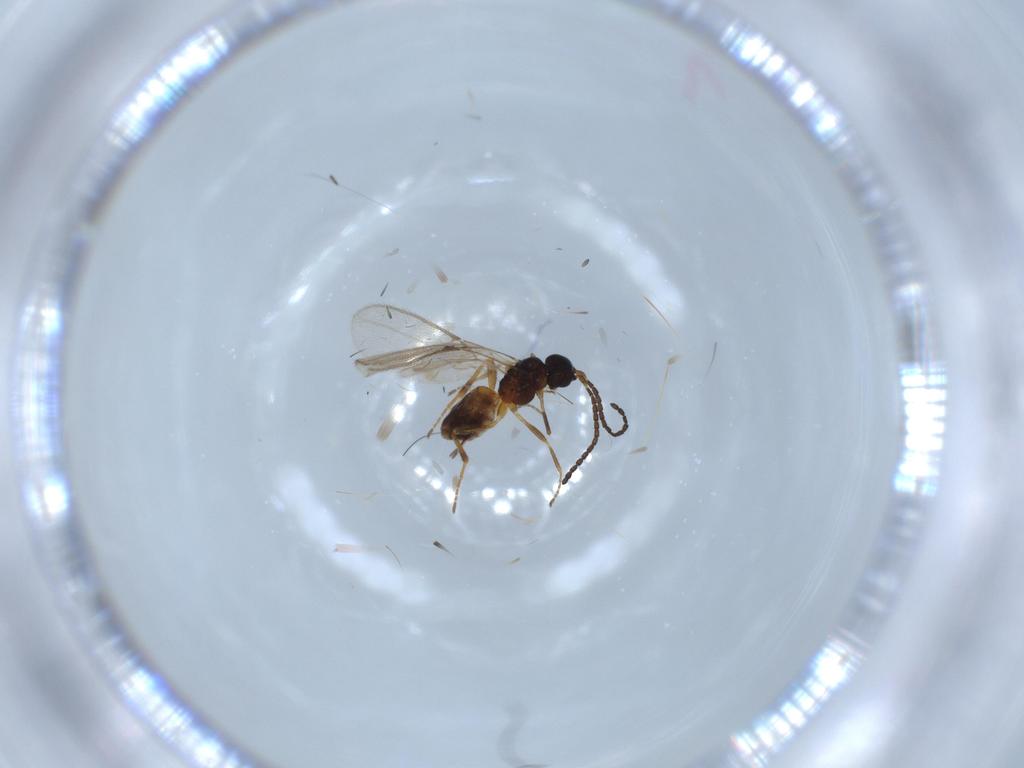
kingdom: Animalia
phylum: Arthropoda
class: Insecta
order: Hymenoptera
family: Braconidae
